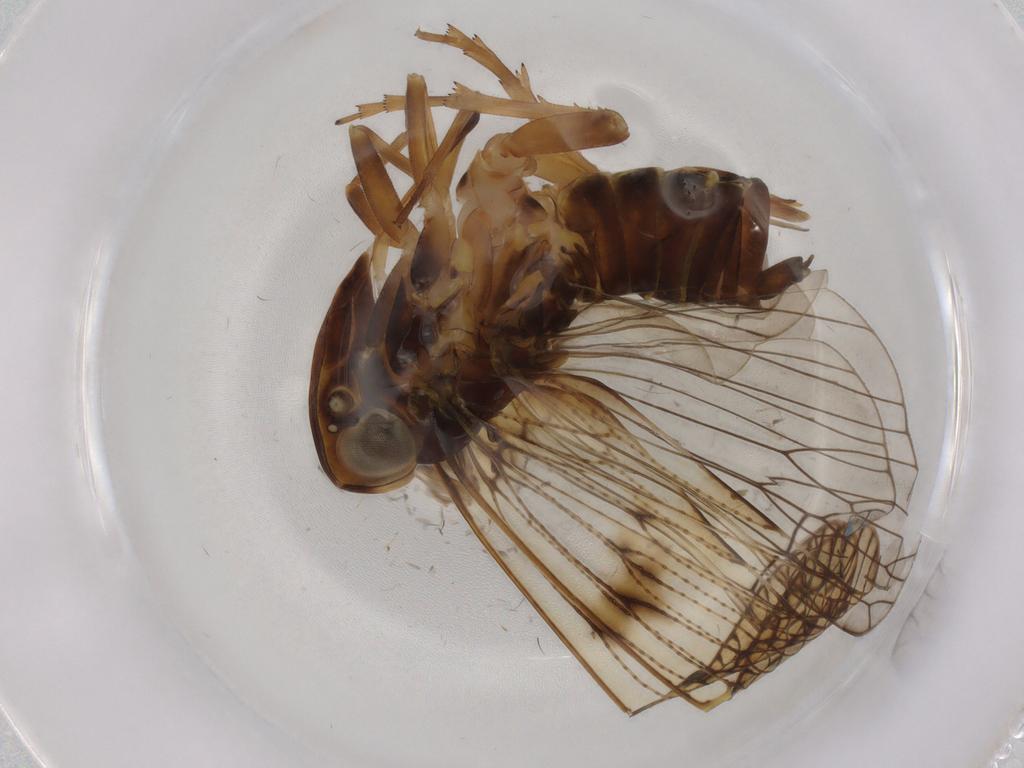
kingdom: Animalia
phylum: Arthropoda
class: Insecta
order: Hemiptera
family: Cixiidae
